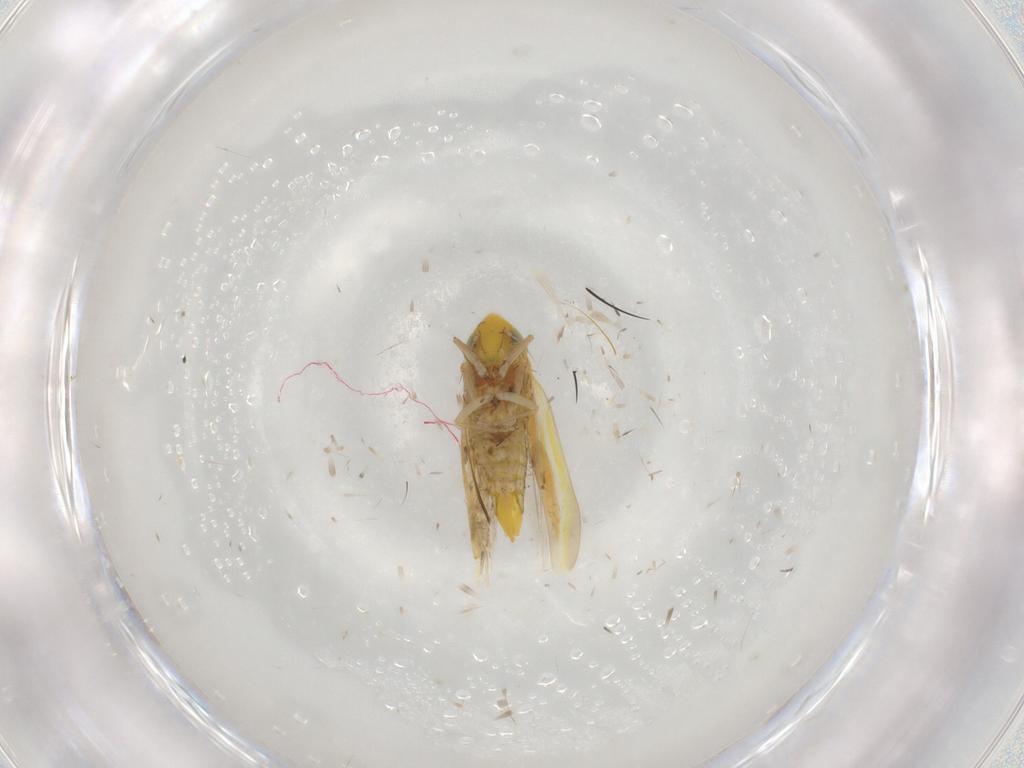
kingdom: Animalia
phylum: Arthropoda
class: Insecta
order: Hemiptera
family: Cicadellidae
